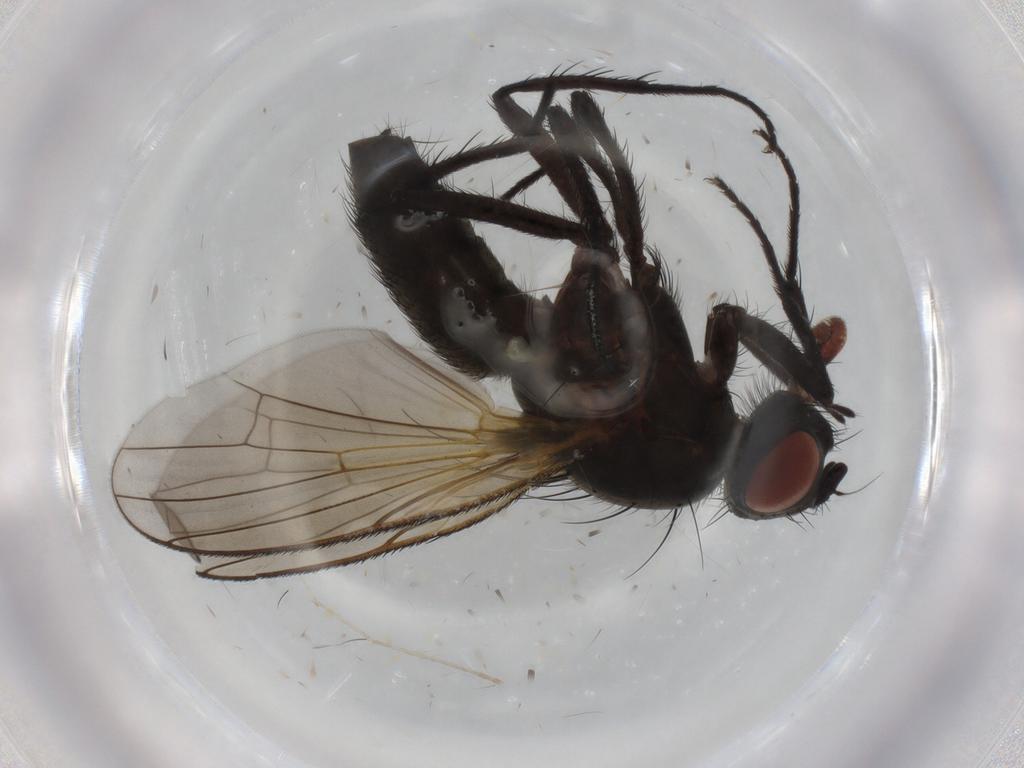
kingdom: Animalia
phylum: Arthropoda
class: Insecta
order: Diptera
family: Anthomyiidae
